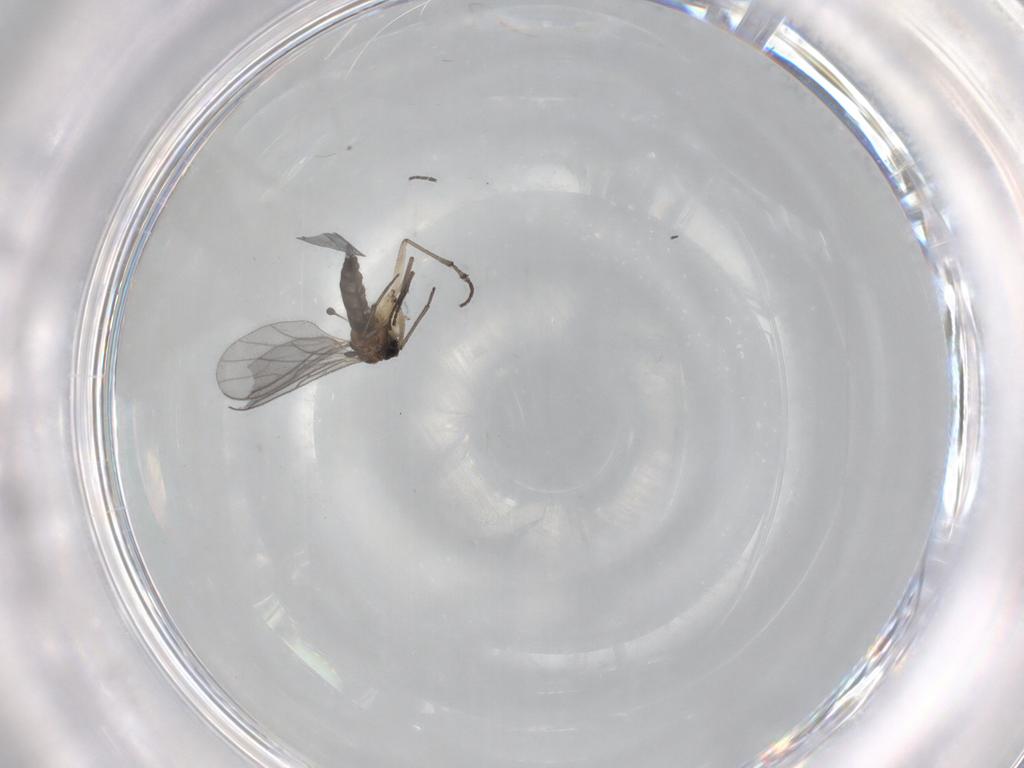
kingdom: Animalia
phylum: Arthropoda
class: Insecta
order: Diptera
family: Sciaridae
